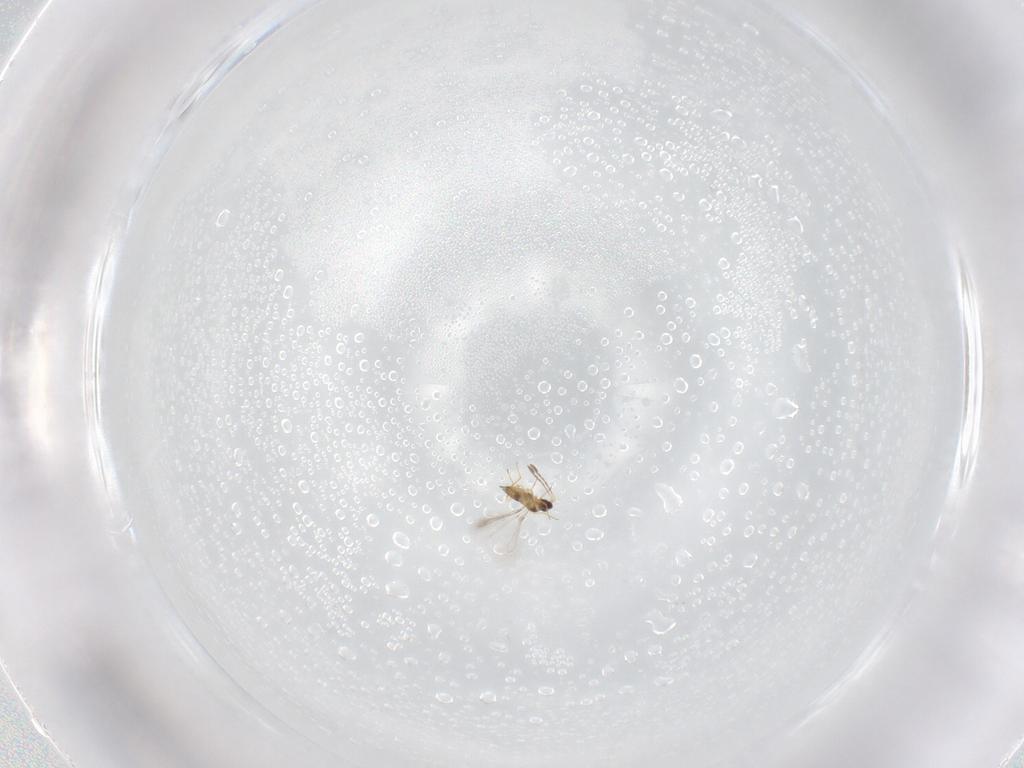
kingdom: Animalia
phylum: Arthropoda
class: Insecta
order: Hymenoptera
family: Mymaridae
